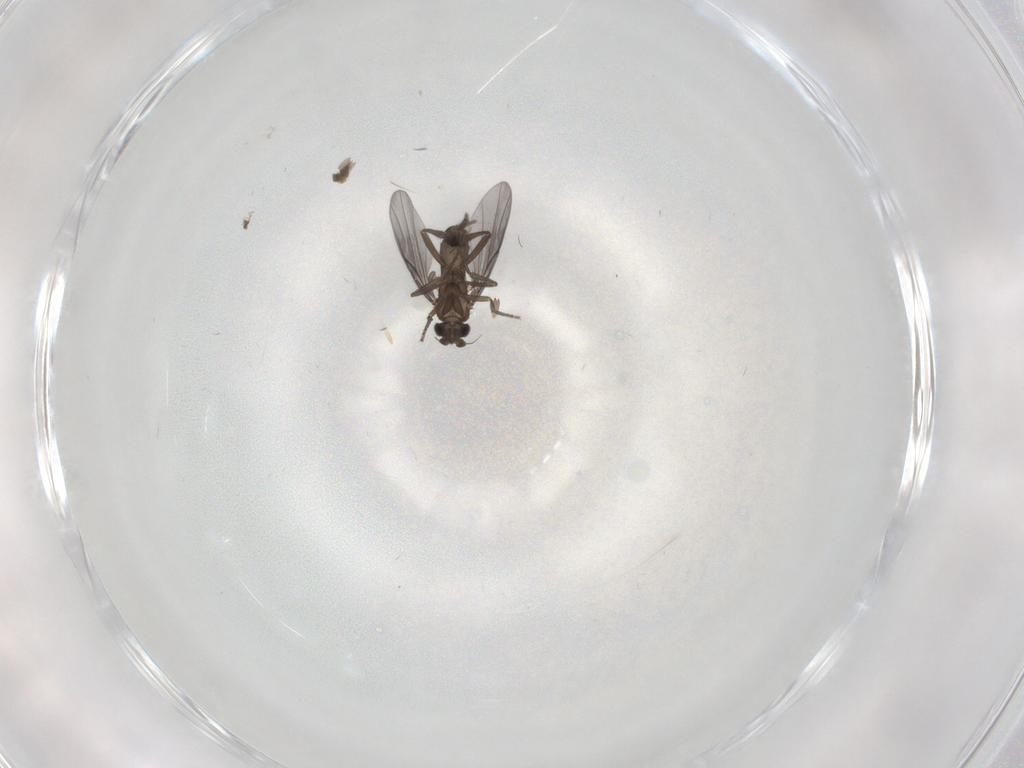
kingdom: Animalia
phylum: Arthropoda
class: Insecta
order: Diptera
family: Phoridae
